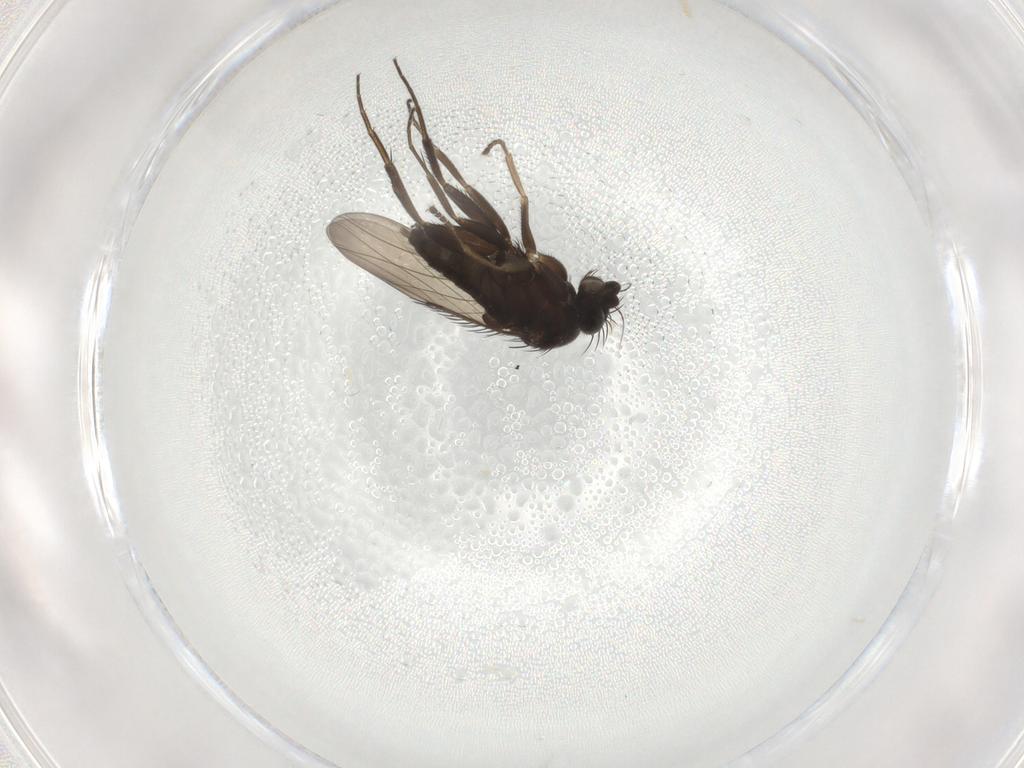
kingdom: Animalia
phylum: Arthropoda
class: Insecta
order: Diptera
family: Phoridae
